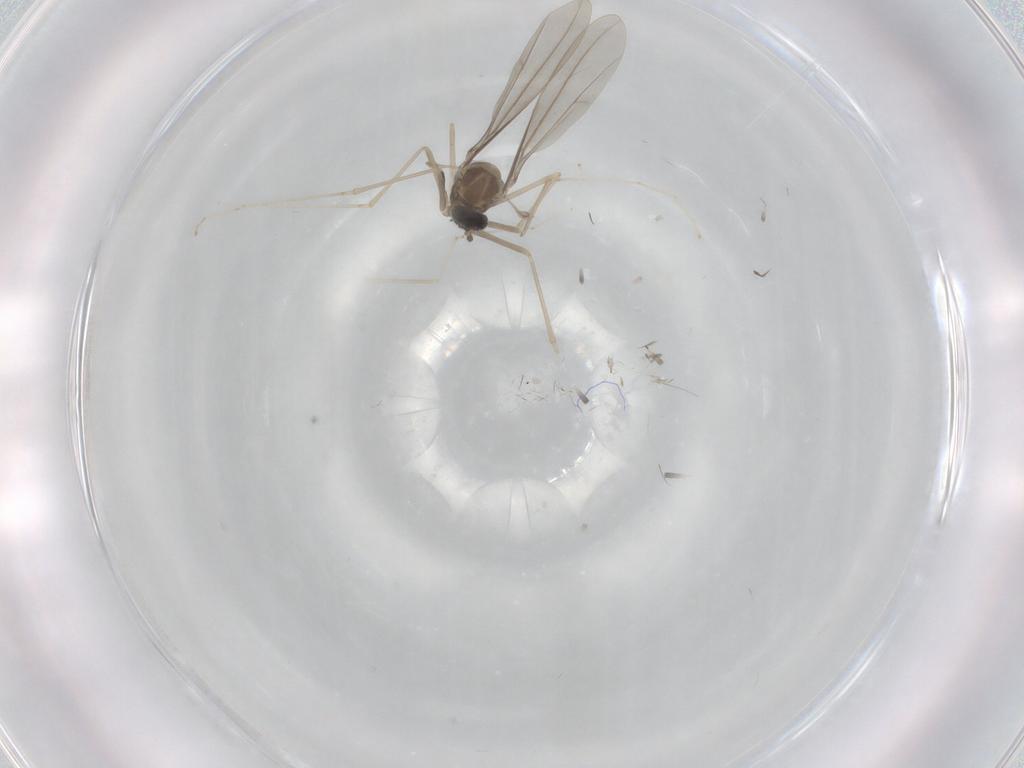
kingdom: Animalia
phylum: Arthropoda
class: Insecta
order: Diptera
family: Cecidomyiidae
